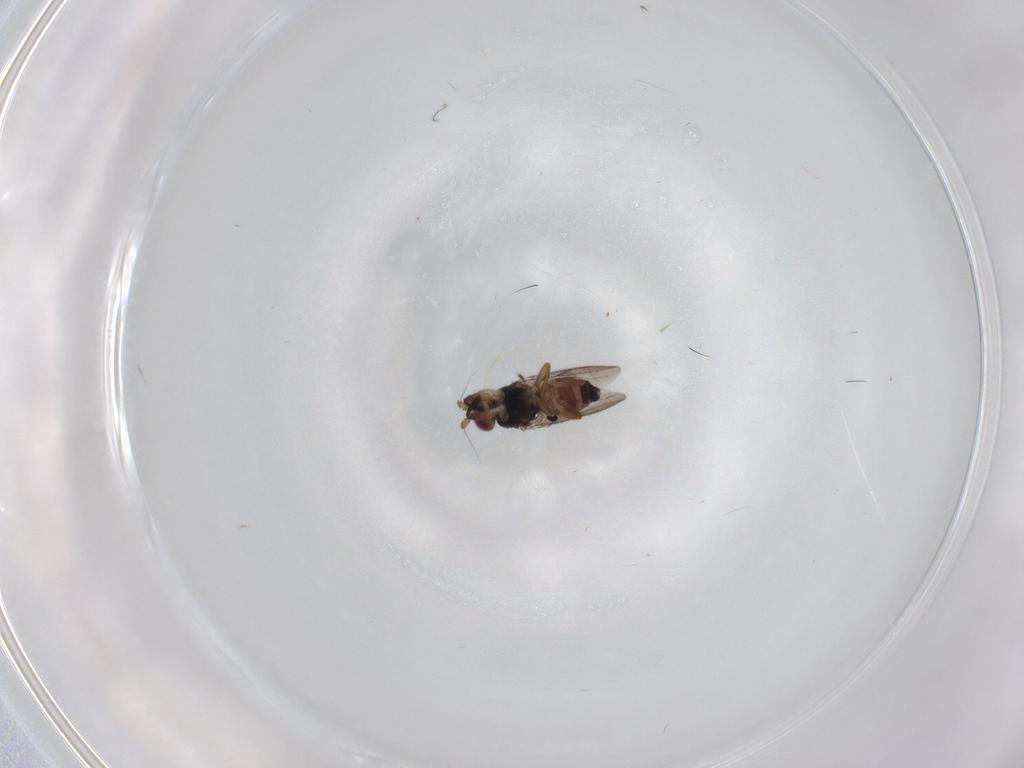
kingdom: Animalia
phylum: Arthropoda
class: Insecta
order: Diptera
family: Sphaeroceridae
